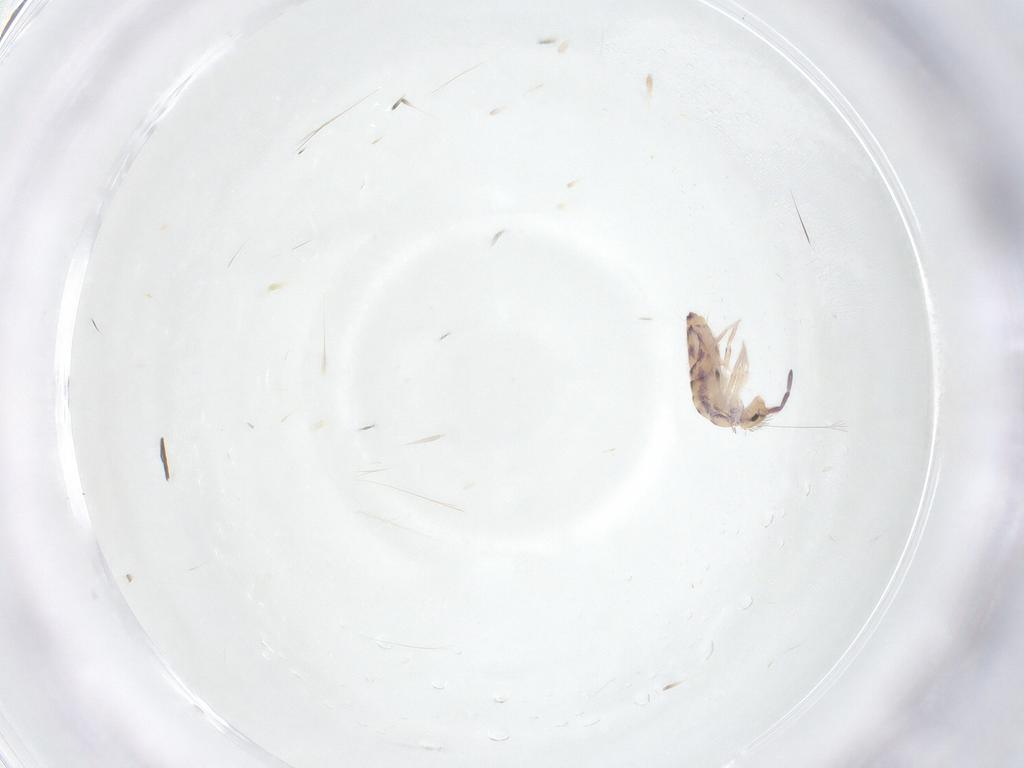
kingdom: Animalia
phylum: Arthropoda
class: Collembola
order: Entomobryomorpha
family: Entomobryidae
